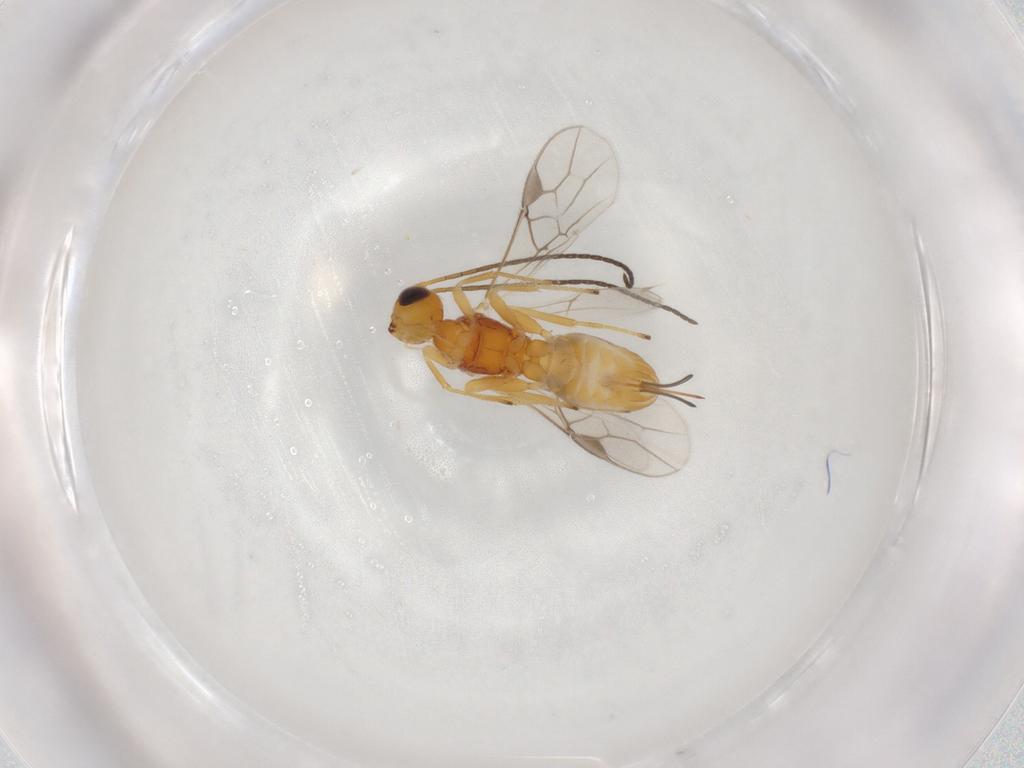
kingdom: Animalia
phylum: Arthropoda
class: Insecta
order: Hymenoptera
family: Braconidae
